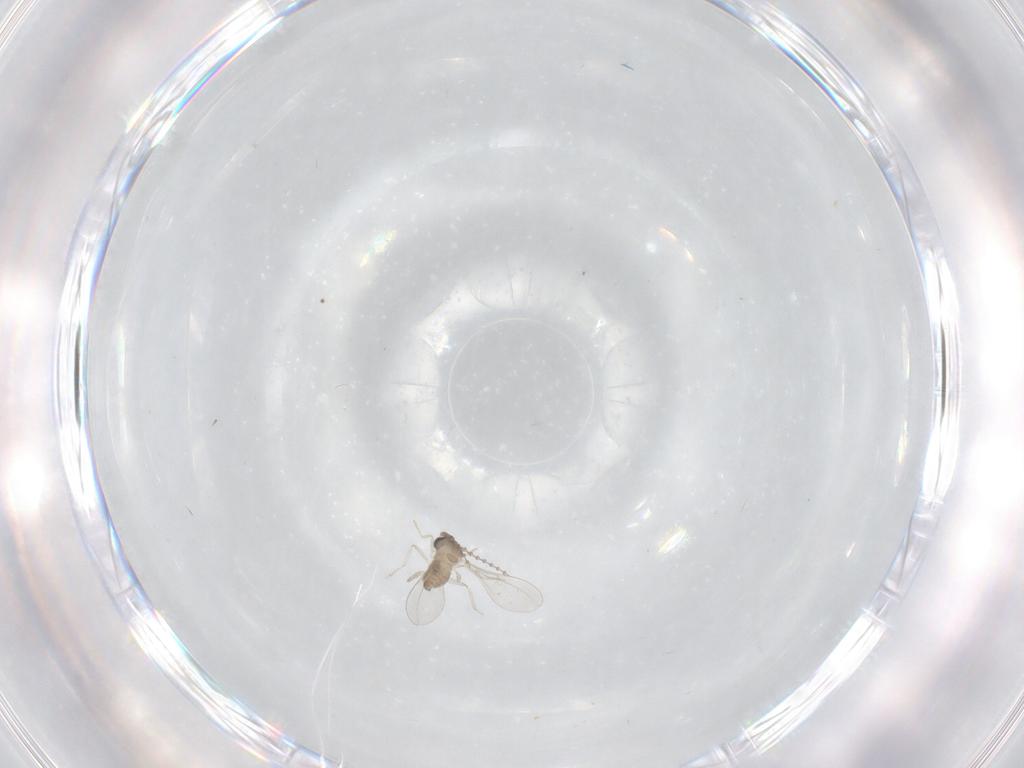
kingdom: Animalia
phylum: Arthropoda
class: Insecta
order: Diptera
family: Cecidomyiidae
